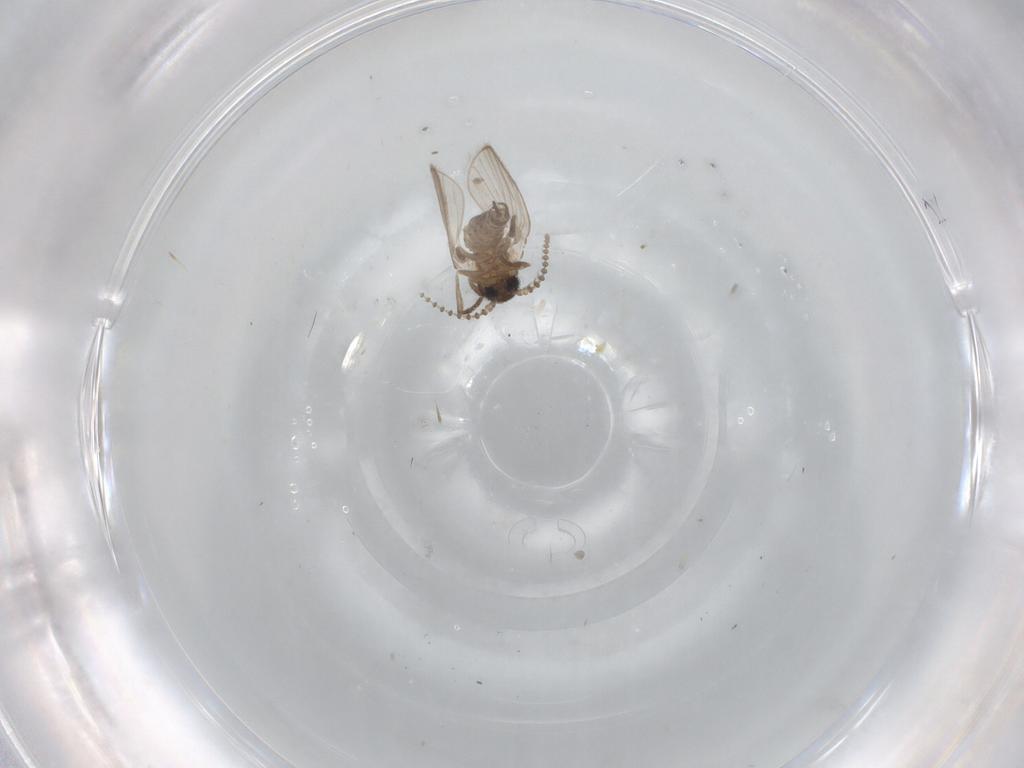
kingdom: Animalia
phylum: Arthropoda
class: Insecta
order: Diptera
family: Psychodidae
